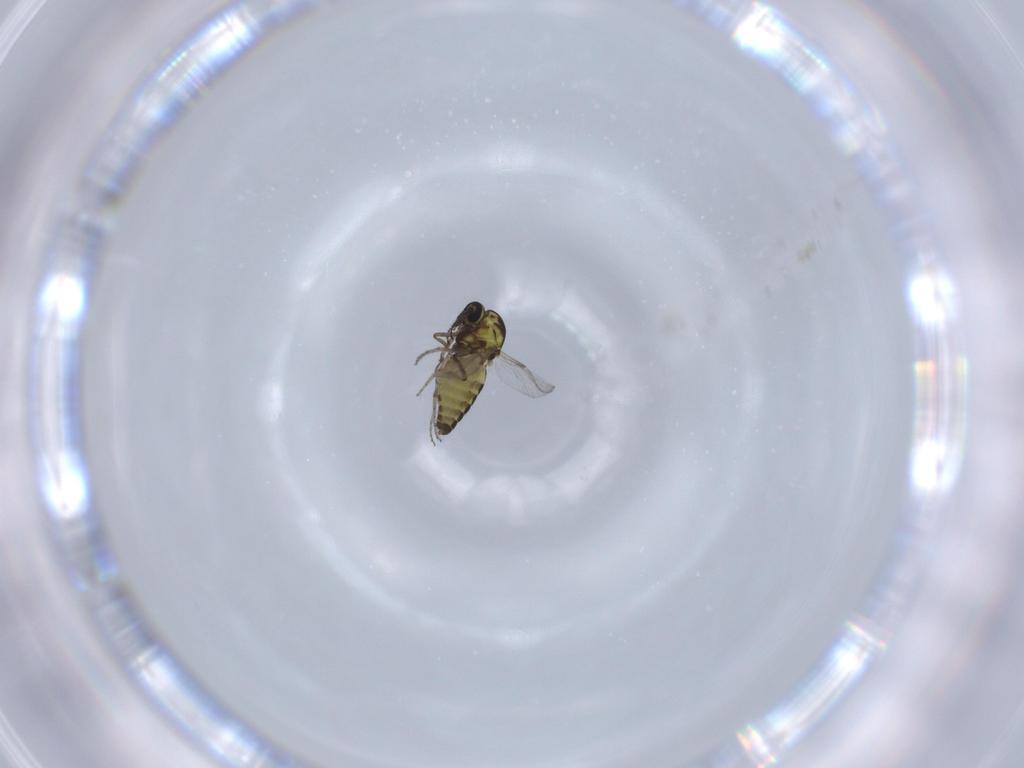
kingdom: Animalia
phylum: Arthropoda
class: Insecta
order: Diptera
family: Ceratopogonidae
